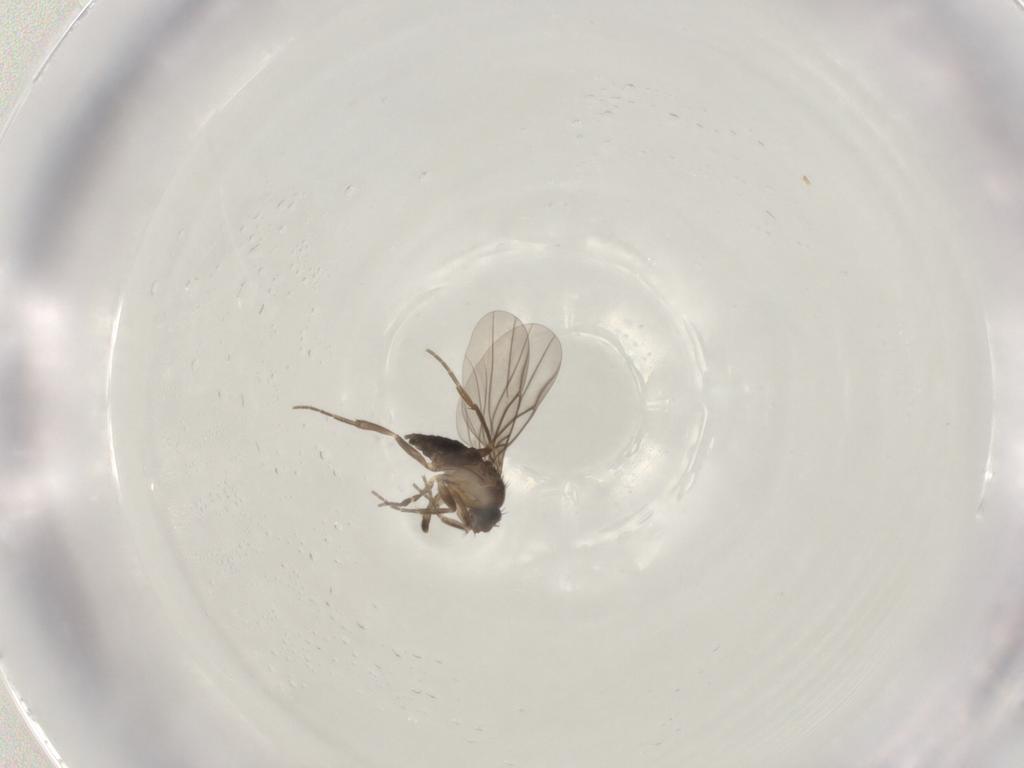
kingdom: Animalia
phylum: Arthropoda
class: Insecta
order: Diptera
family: Phoridae
